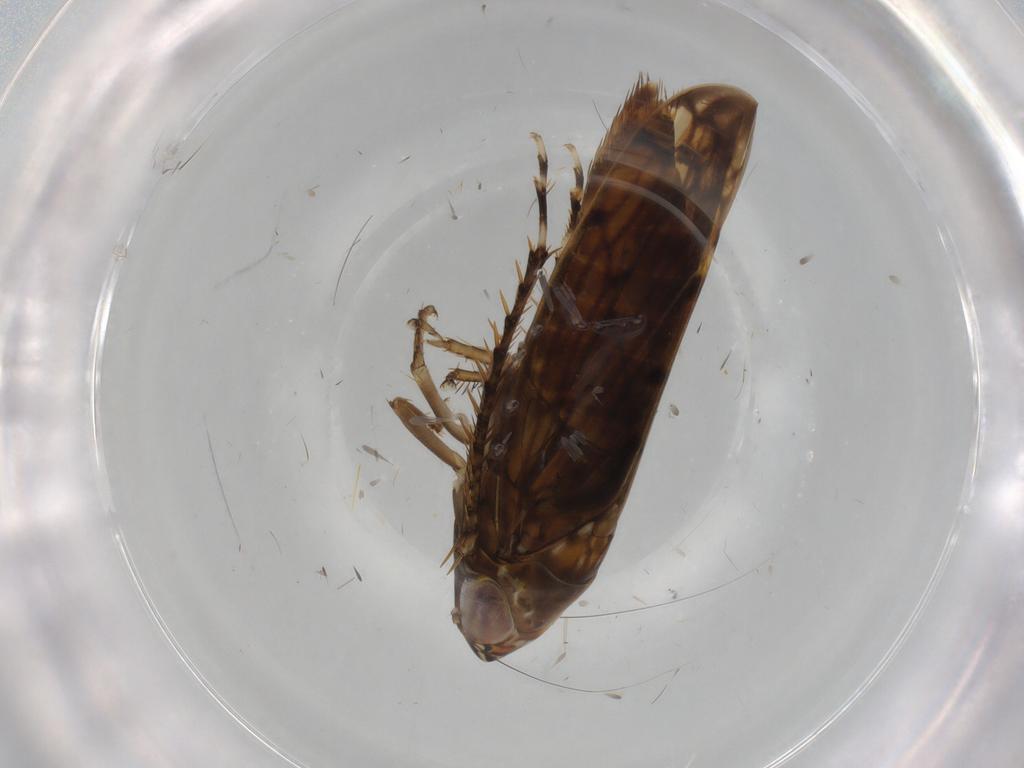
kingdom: Animalia
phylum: Arthropoda
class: Insecta
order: Hemiptera
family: Cicadellidae
